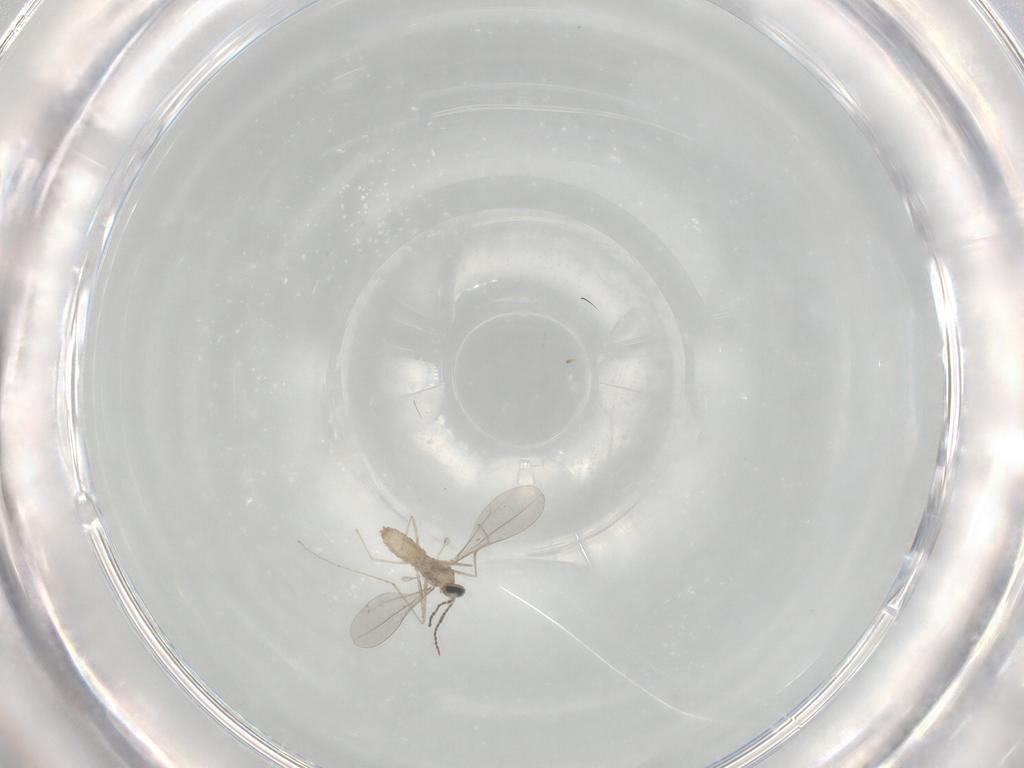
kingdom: Animalia
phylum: Arthropoda
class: Insecta
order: Diptera
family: Cecidomyiidae
